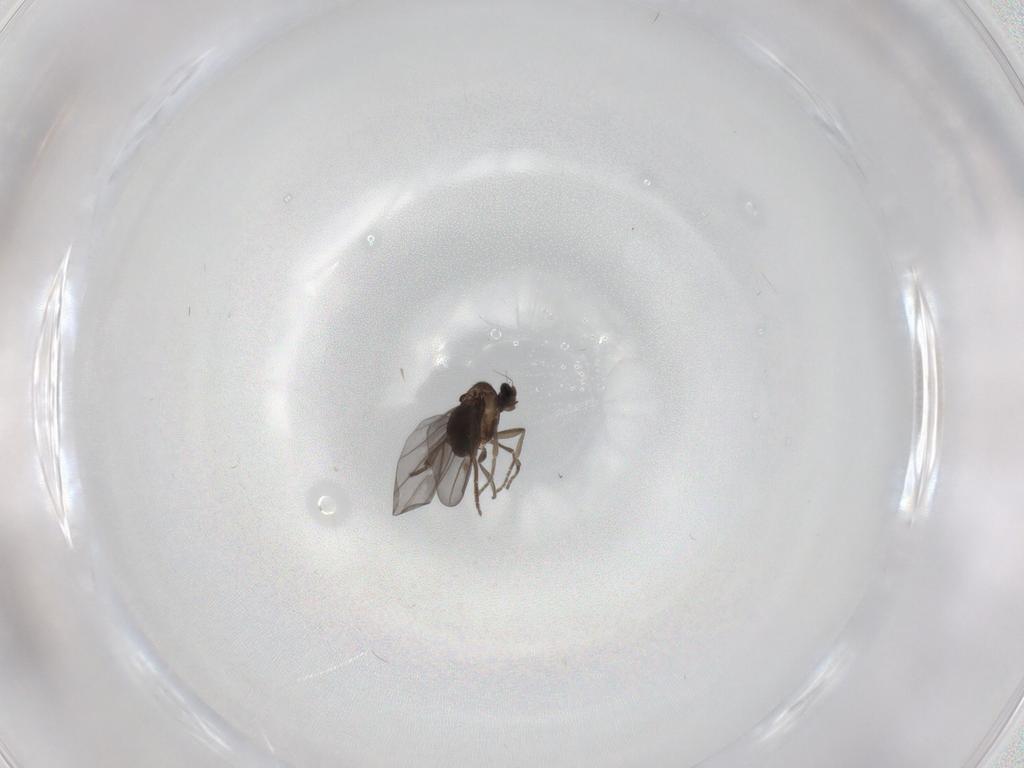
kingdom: Animalia
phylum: Arthropoda
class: Insecta
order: Diptera
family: Phoridae
